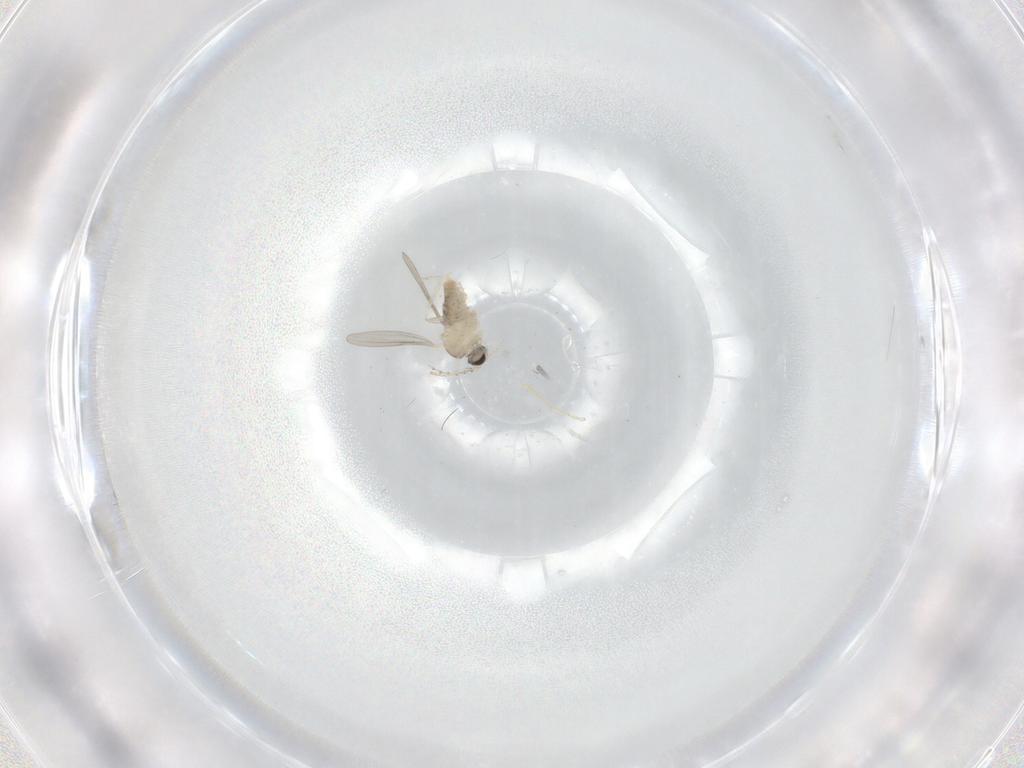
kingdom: Animalia
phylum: Arthropoda
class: Insecta
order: Diptera
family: Cecidomyiidae
